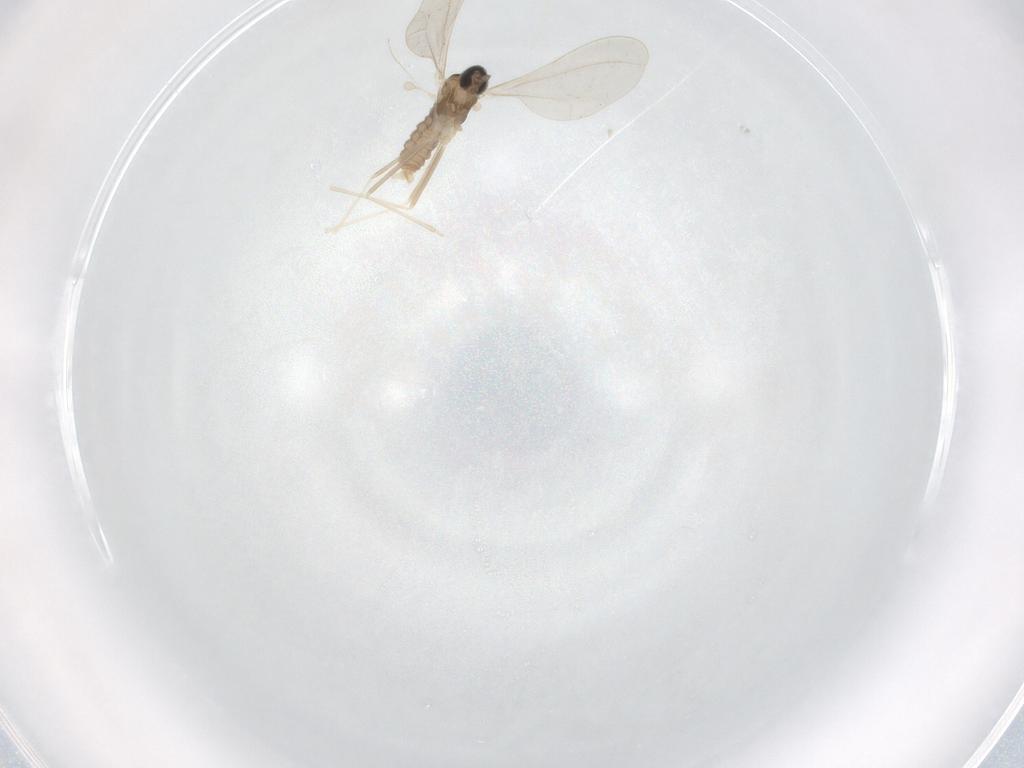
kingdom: Animalia
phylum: Arthropoda
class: Insecta
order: Diptera
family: Cecidomyiidae
